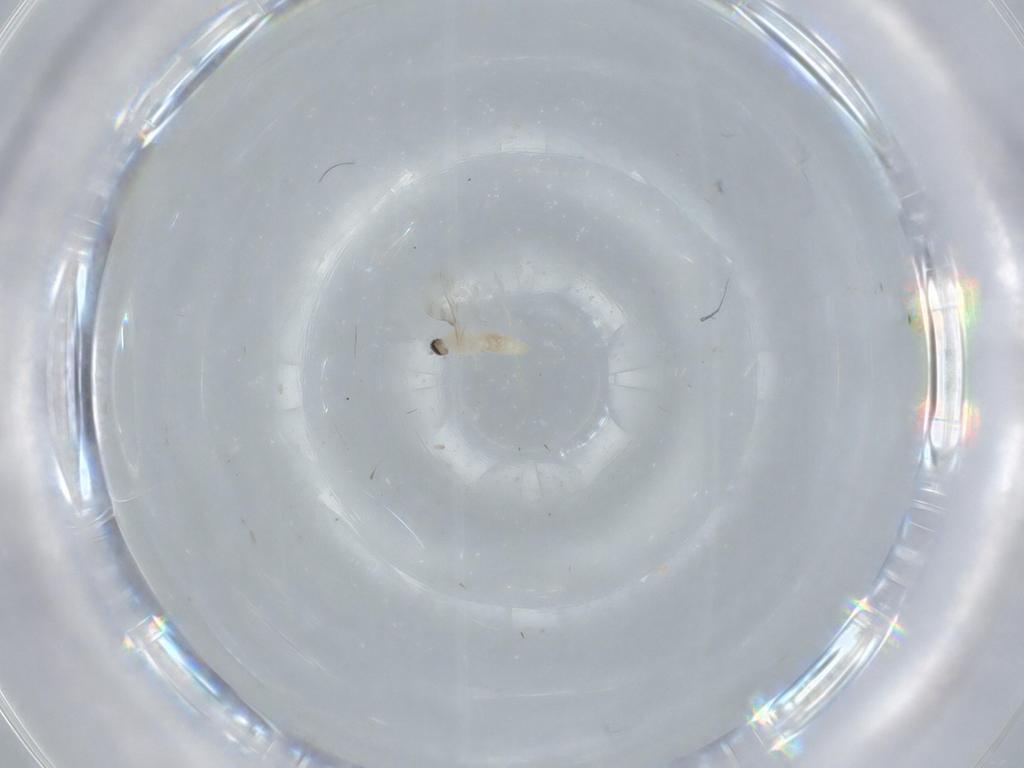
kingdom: Animalia
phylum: Arthropoda
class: Insecta
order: Diptera
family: Cecidomyiidae
